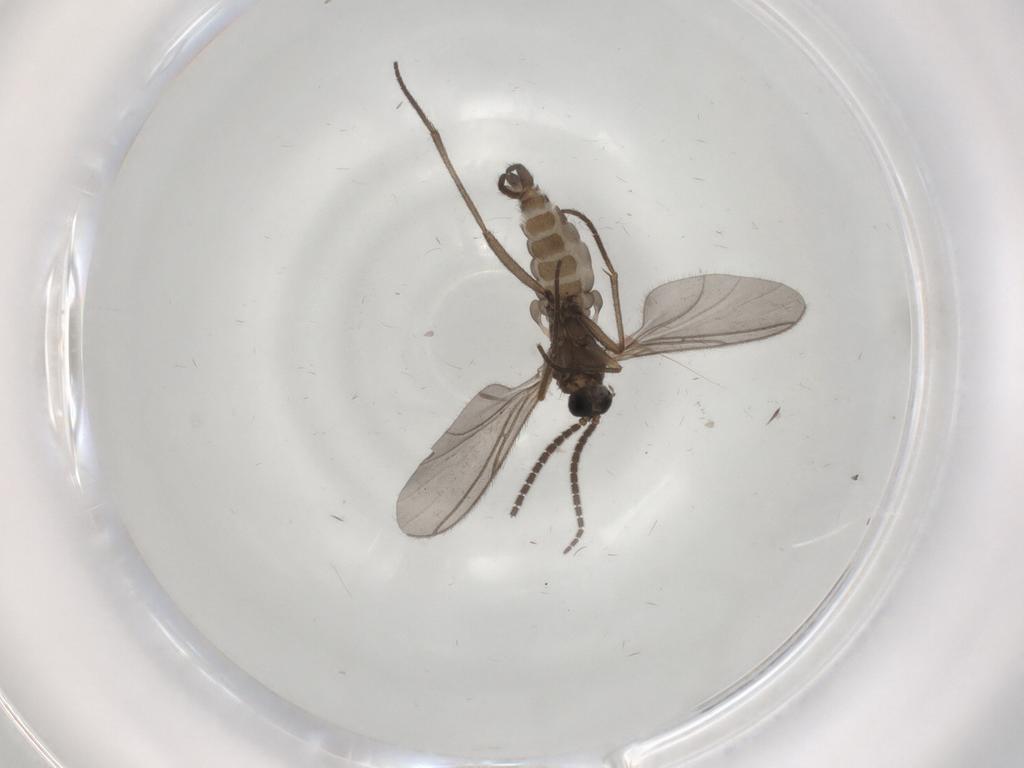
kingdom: Animalia
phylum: Arthropoda
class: Insecta
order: Diptera
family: Sciaridae
